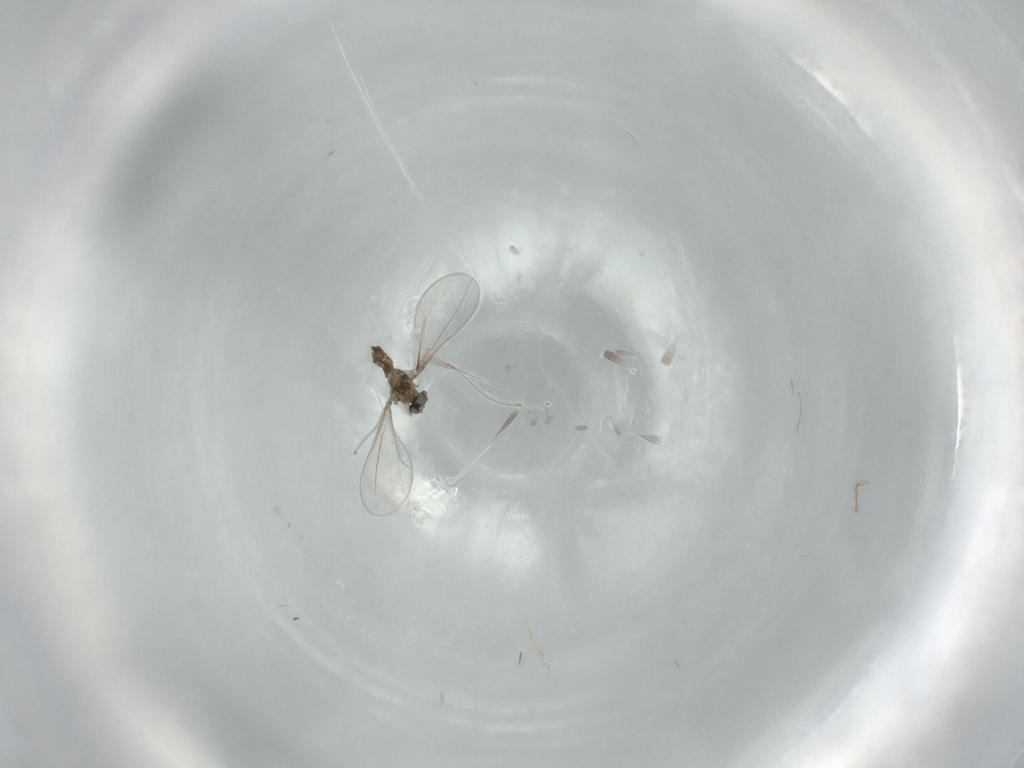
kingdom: Animalia
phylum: Arthropoda
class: Insecta
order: Diptera
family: Cecidomyiidae
